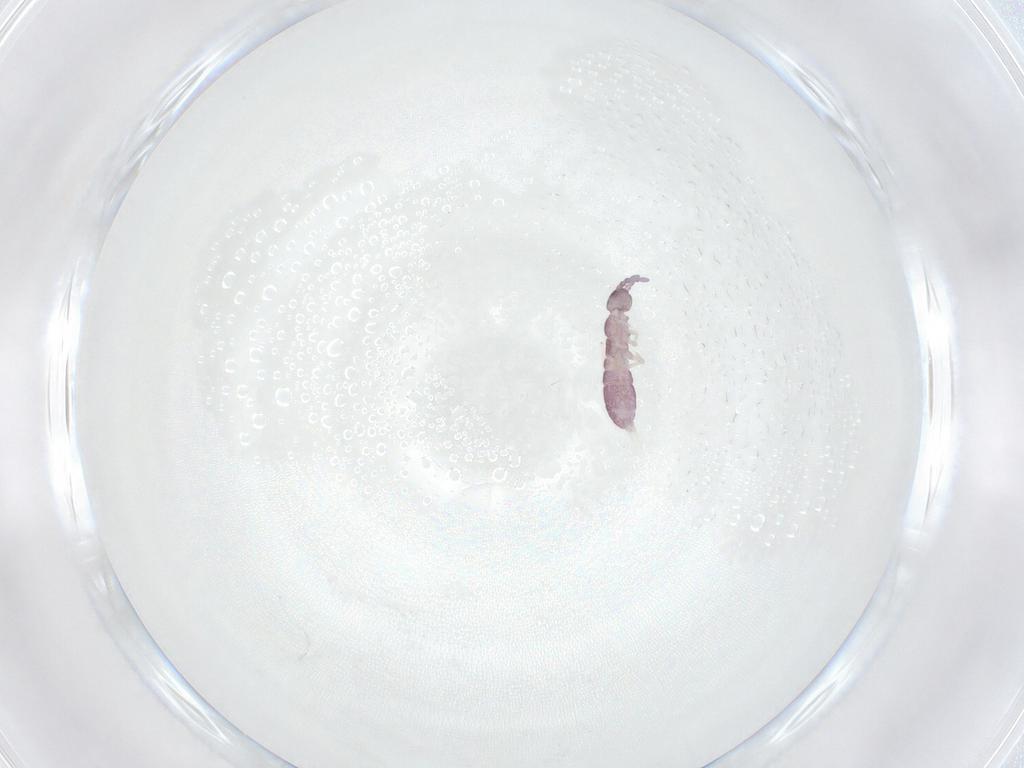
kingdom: Animalia
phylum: Arthropoda
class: Collembola
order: Entomobryomorpha
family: Isotomidae
